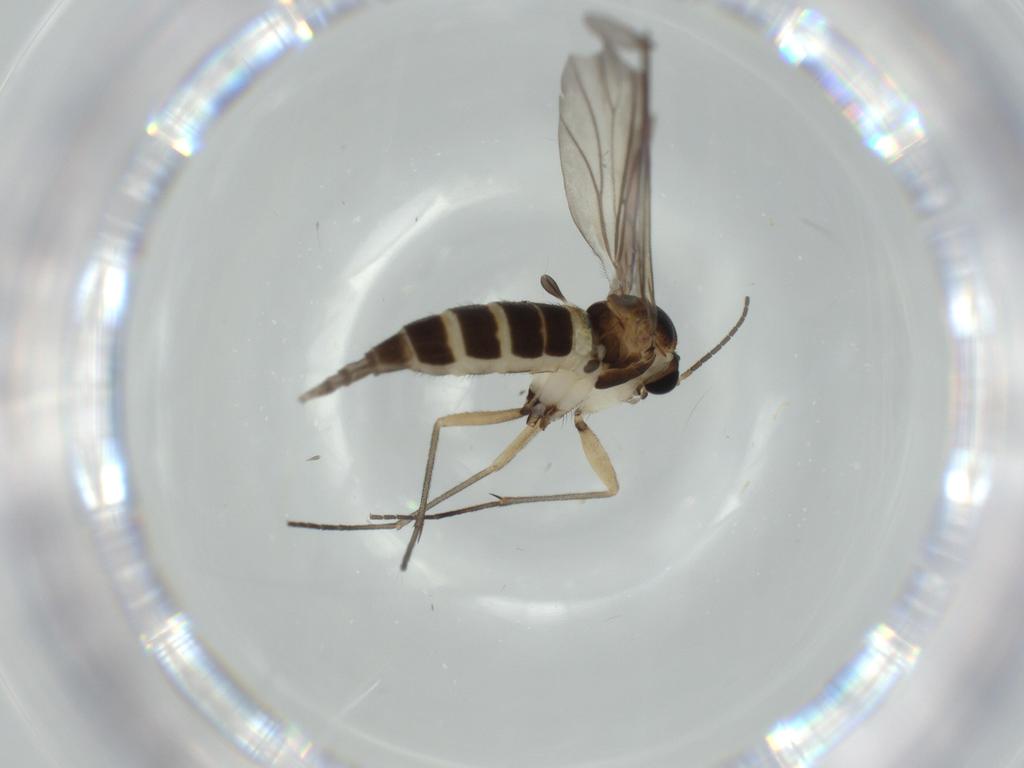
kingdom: Animalia
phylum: Arthropoda
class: Insecta
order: Diptera
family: Sciaridae
